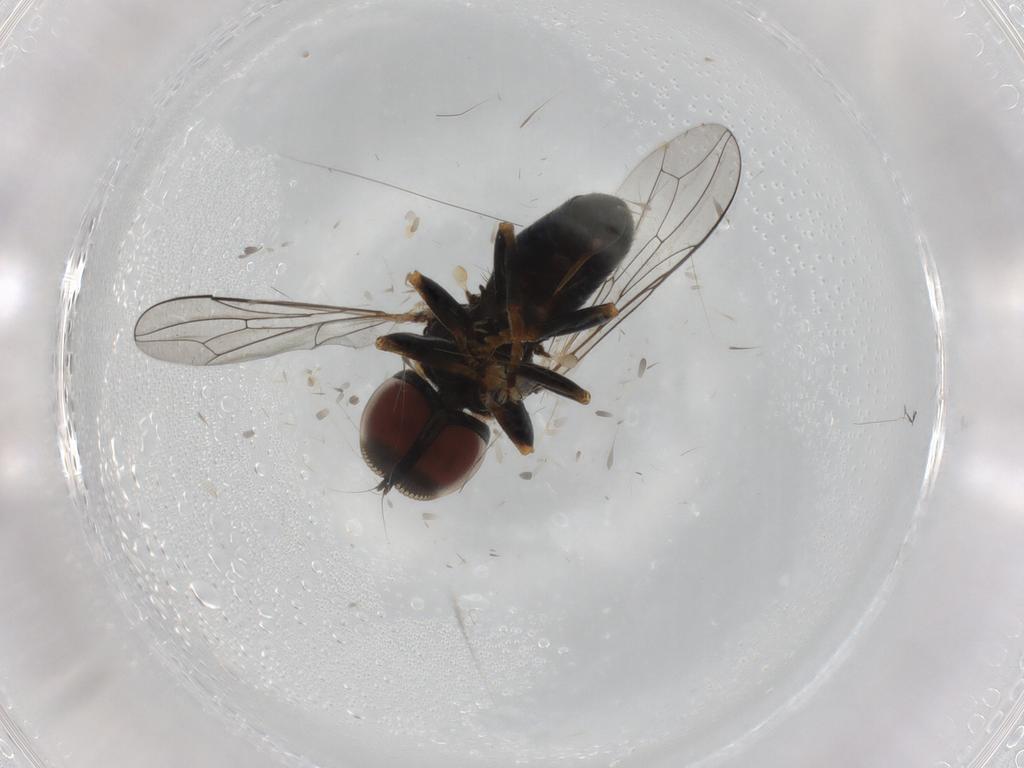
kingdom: Animalia
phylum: Arthropoda
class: Insecta
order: Diptera
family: Pipunculidae
